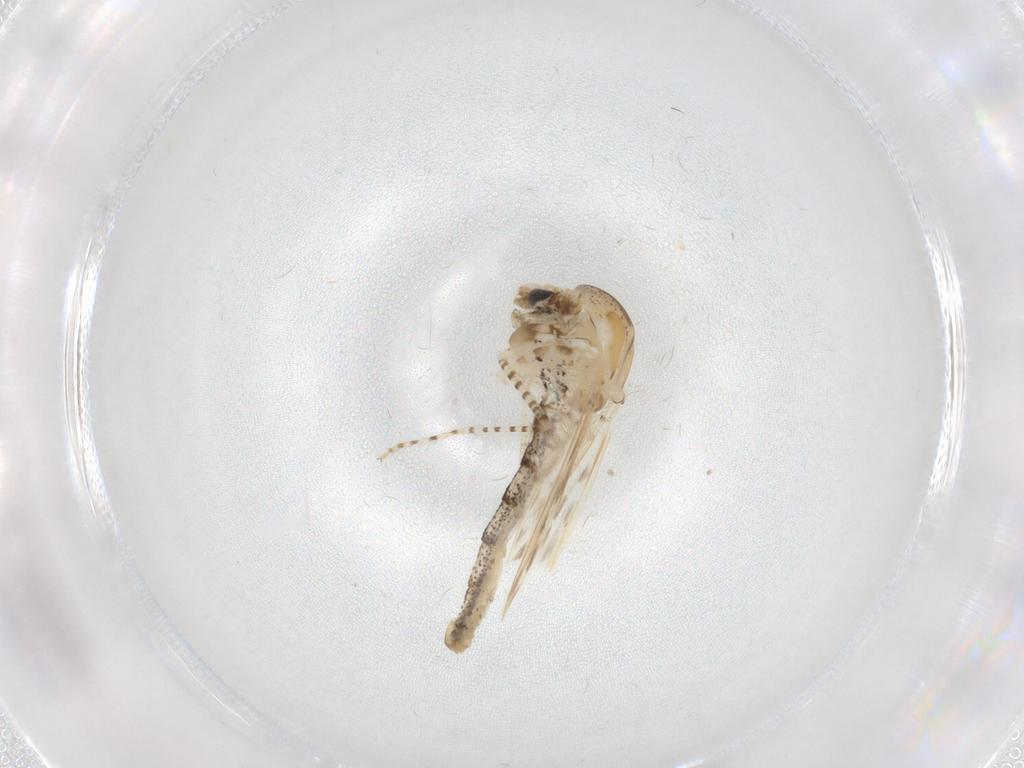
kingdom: Animalia
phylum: Arthropoda
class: Insecta
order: Diptera
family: Chaoboridae
